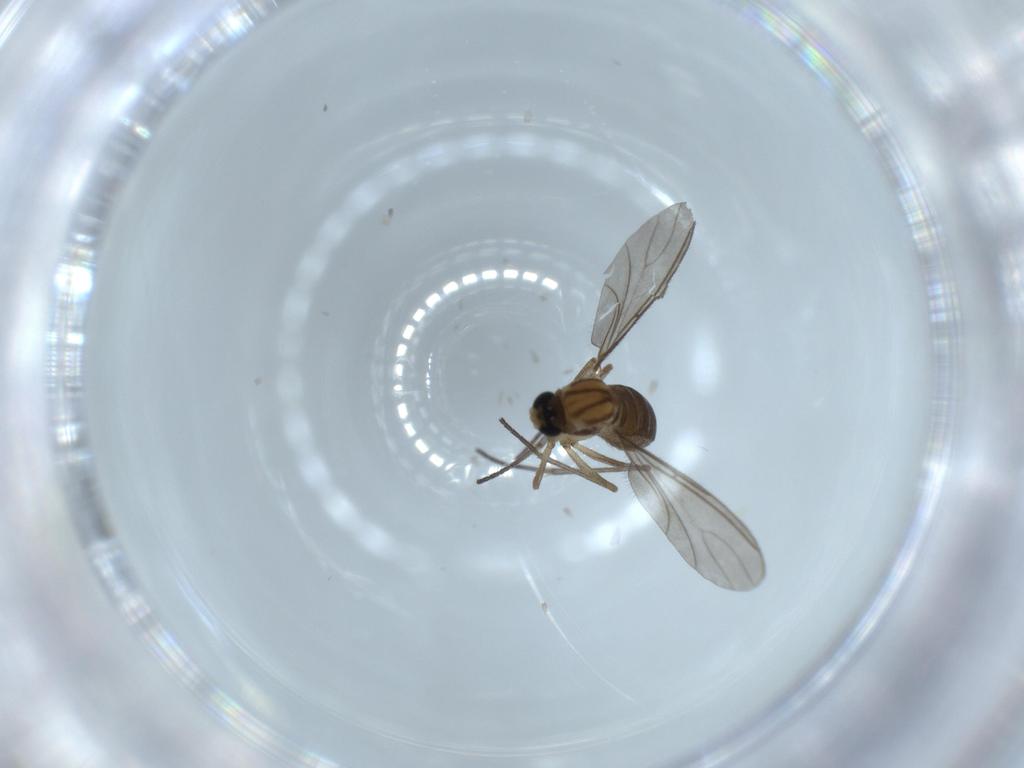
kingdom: Animalia
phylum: Arthropoda
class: Insecta
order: Diptera
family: Sciaridae
